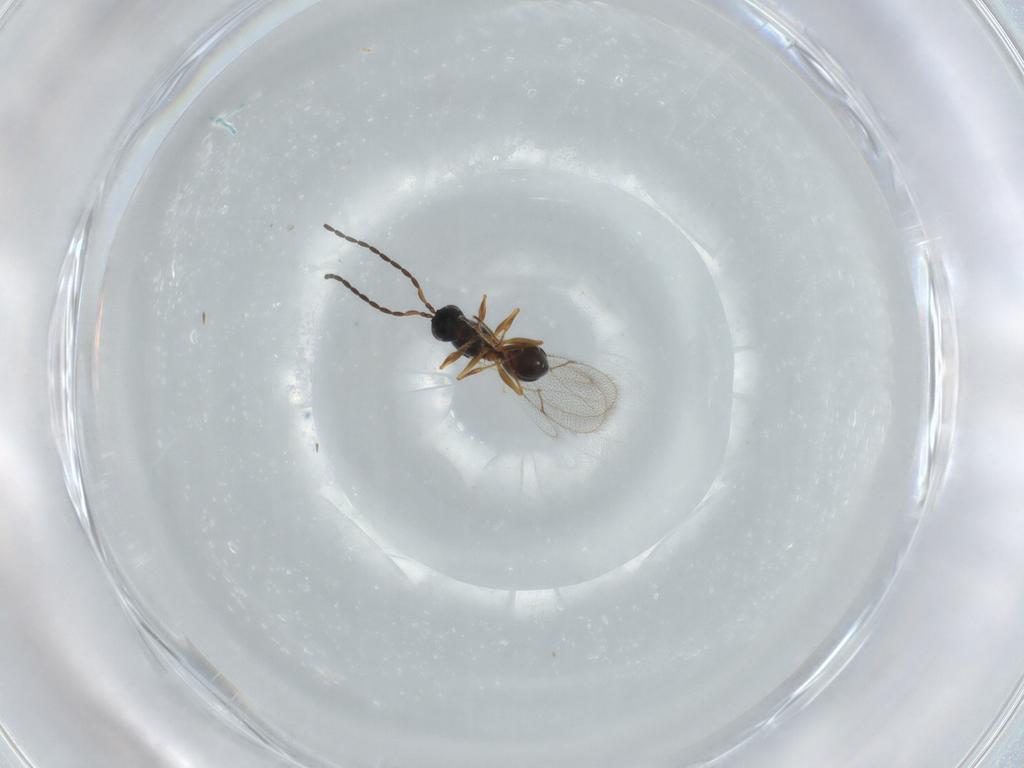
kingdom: Animalia
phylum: Arthropoda
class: Insecta
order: Hymenoptera
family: Figitidae
